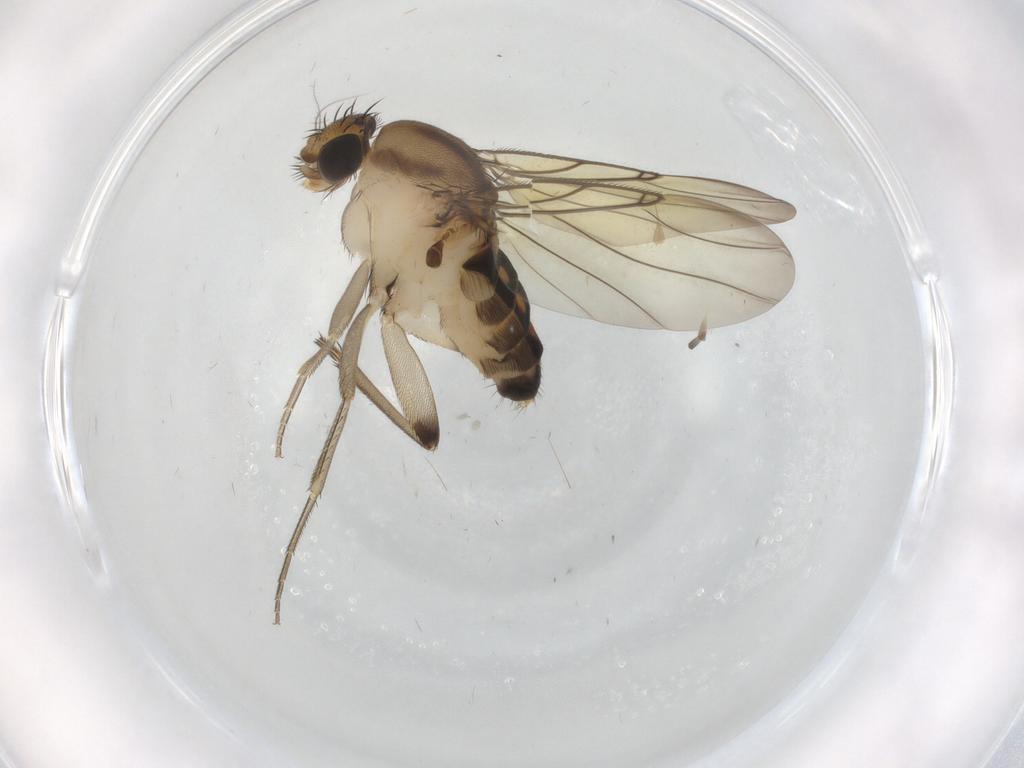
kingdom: Animalia
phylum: Arthropoda
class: Insecta
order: Diptera
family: Phoridae
